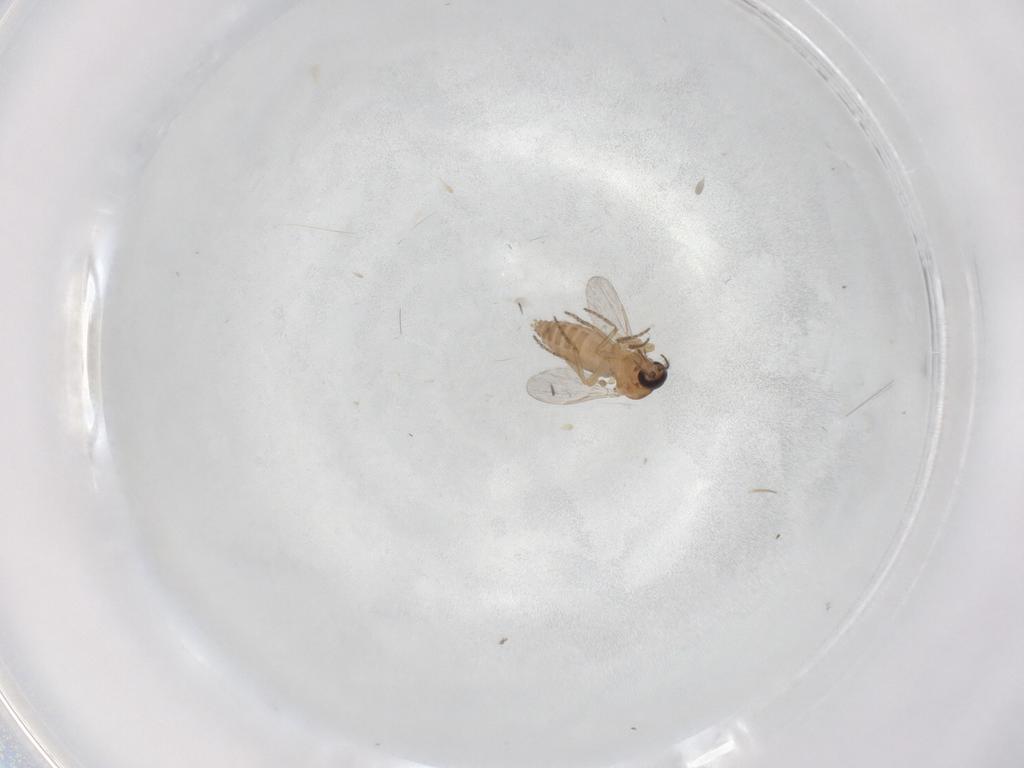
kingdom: Animalia
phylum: Arthropoda
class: Insecta
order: Diptera
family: Ceratopogonidae
